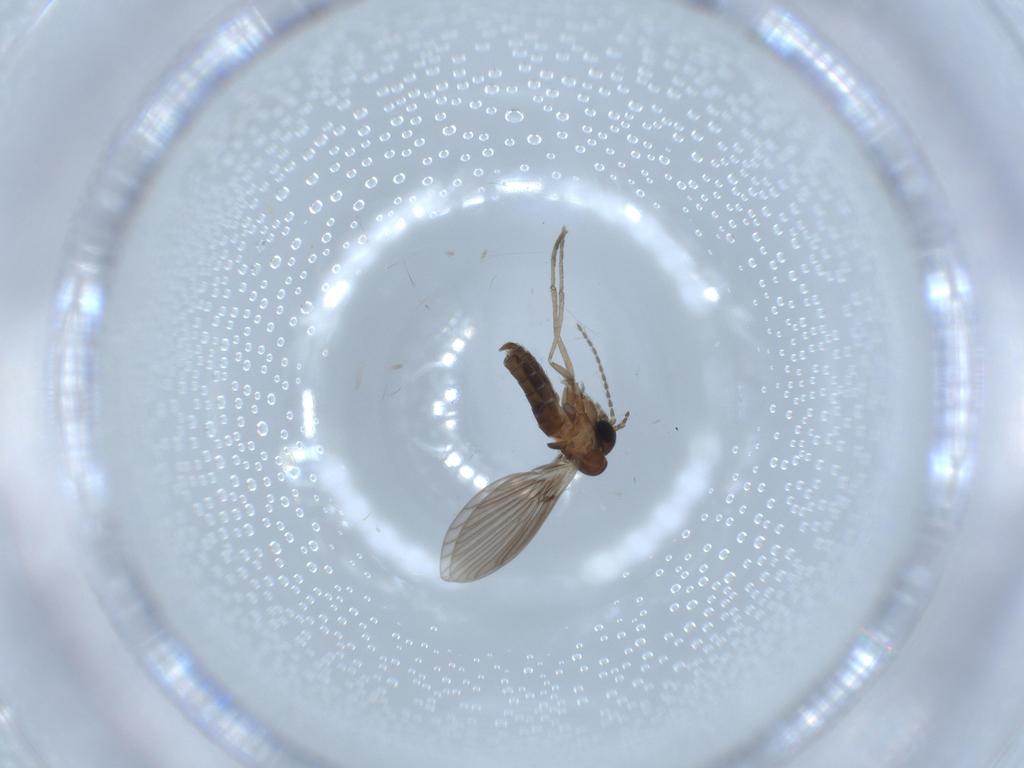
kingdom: Animalia
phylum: Arthropoda
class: Insecta
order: Diptera
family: Psychodidae
